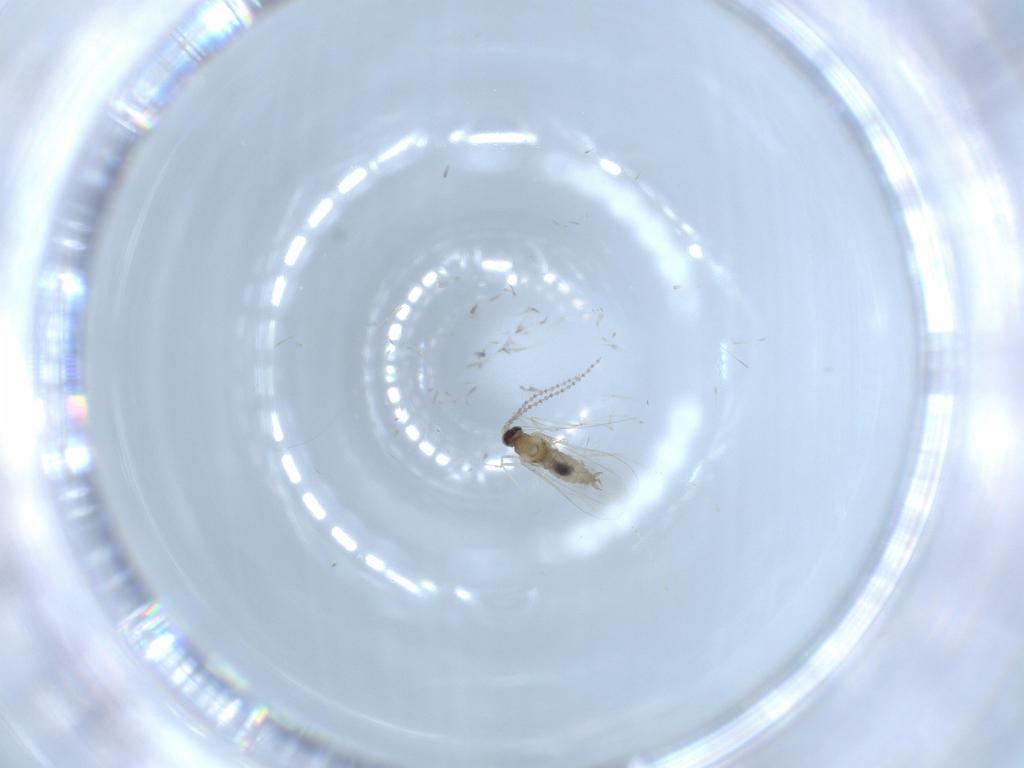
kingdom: Animalia
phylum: Arthropoda
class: Insecta
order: Diptera
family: Cecidomyiidae
